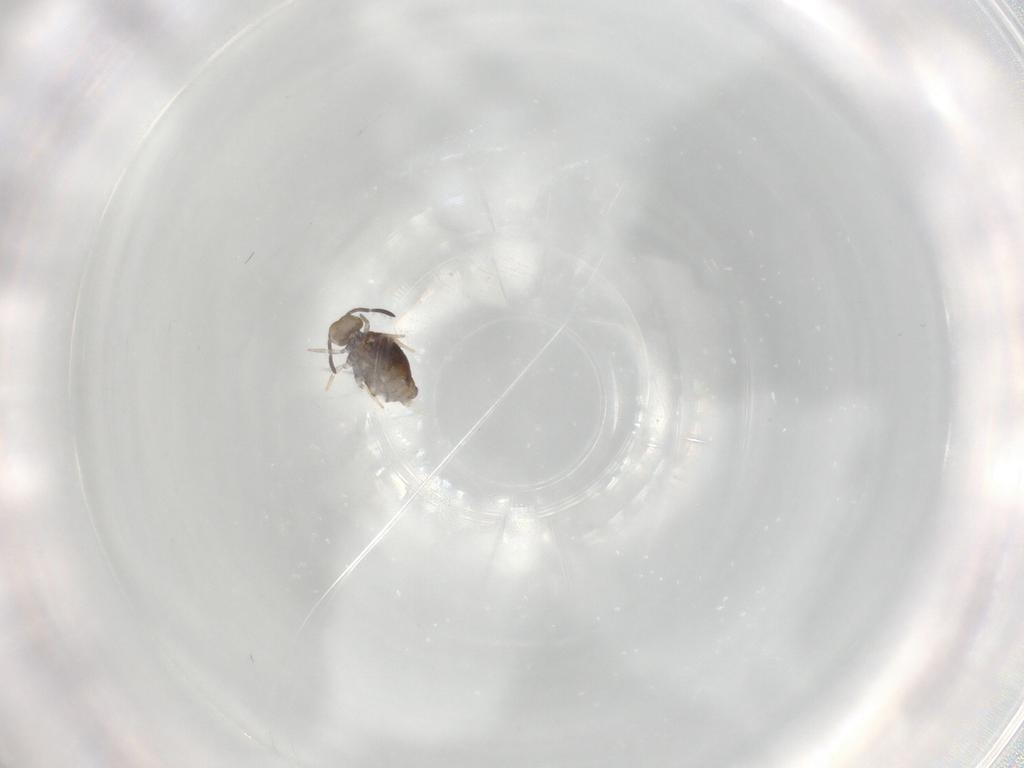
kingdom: Animalia
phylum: Arthropoda
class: Collembola
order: Symphypleona
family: Katiannidae
